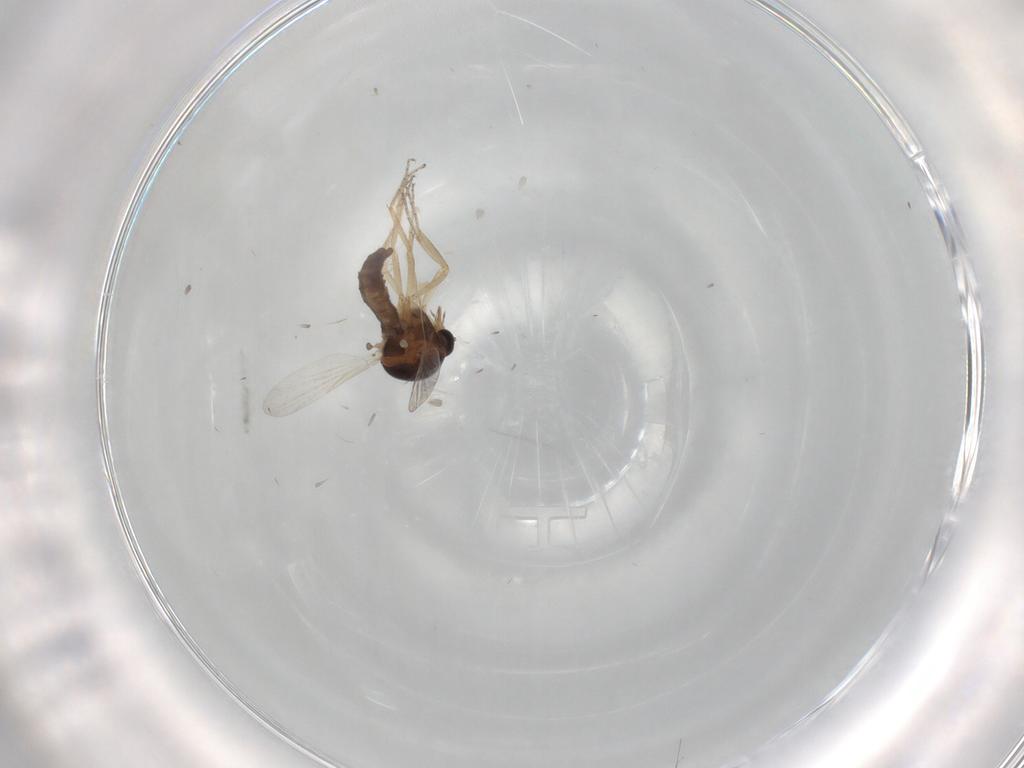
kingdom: Animalia
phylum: Arthropoda
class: Insecta
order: Diptera
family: Ceratopogonidae
